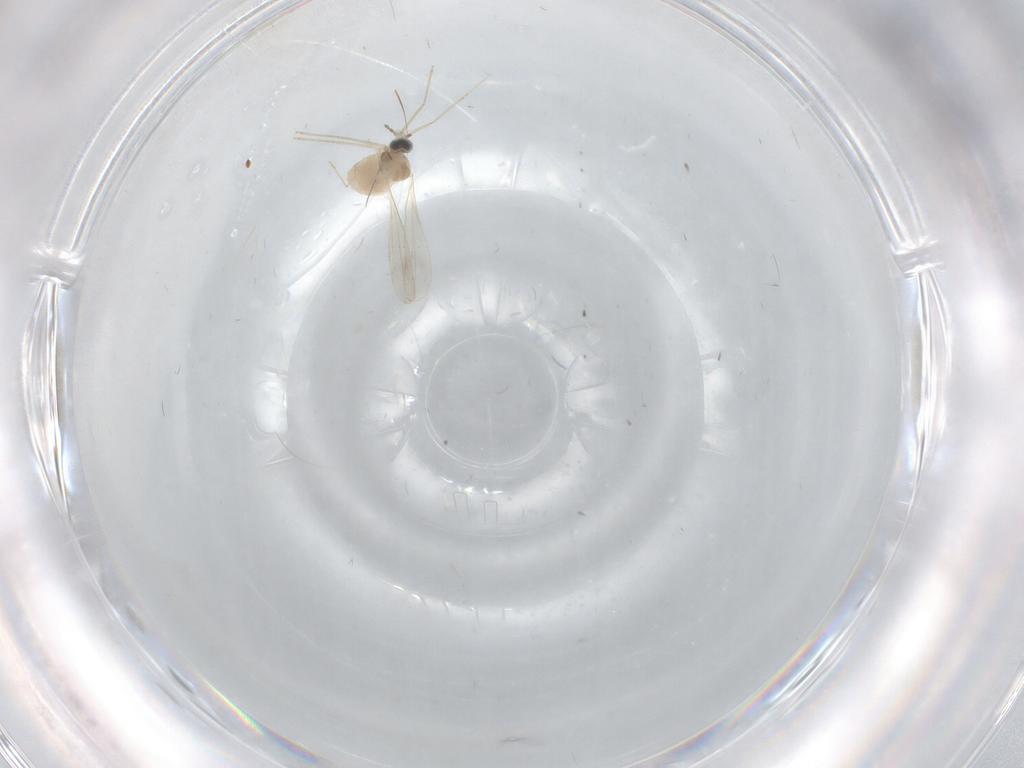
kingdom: Animalia
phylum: Arthropoda
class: Insecta
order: Diptera
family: Cecidomyiidae
